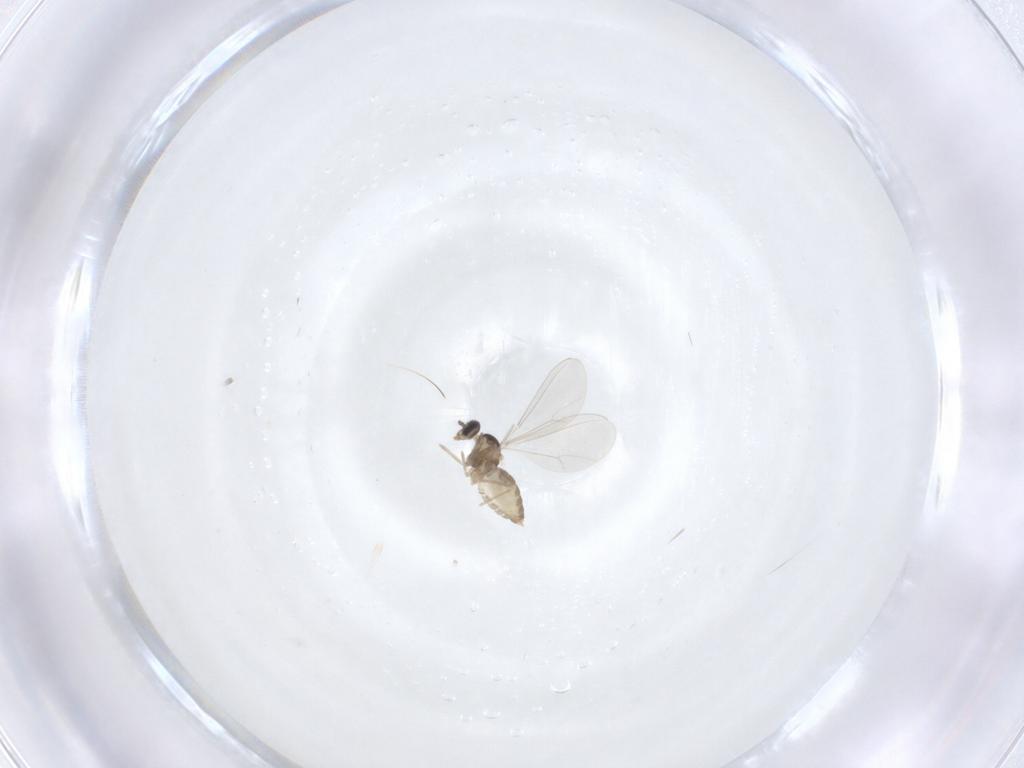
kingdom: Animalia
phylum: Arthropoda
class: Insecta
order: Diptera
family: Cecidomyiidae
